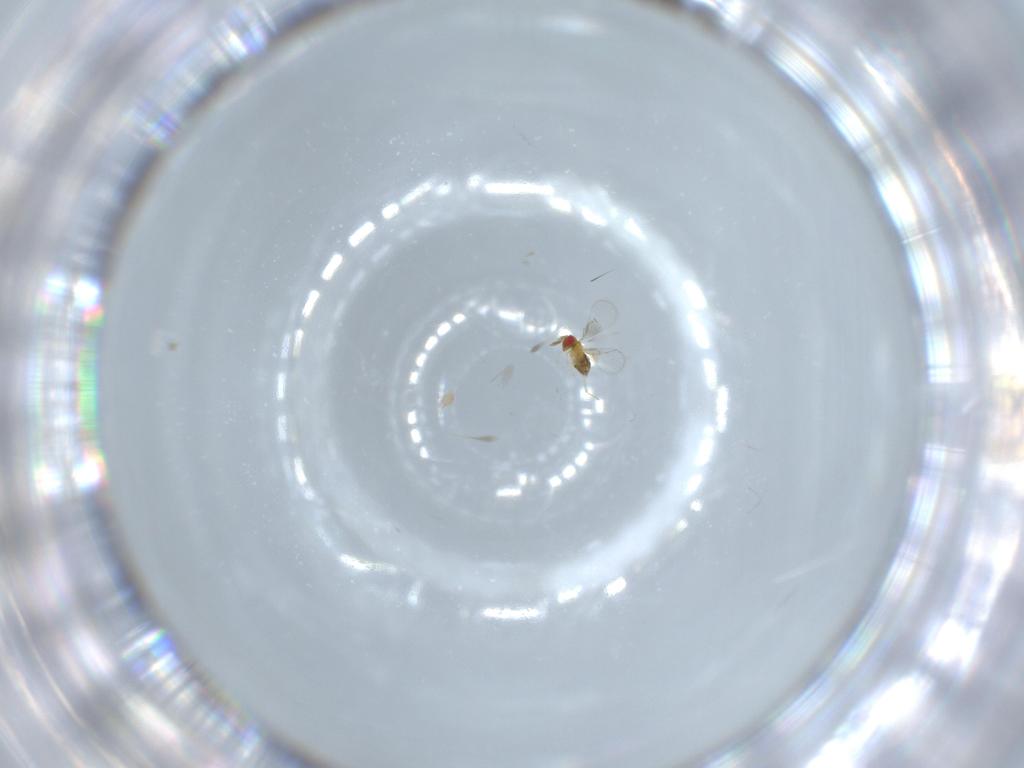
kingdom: Animalia
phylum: Arthropoda
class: Insecta
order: Hymenoptera
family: Trichogrammatidae
